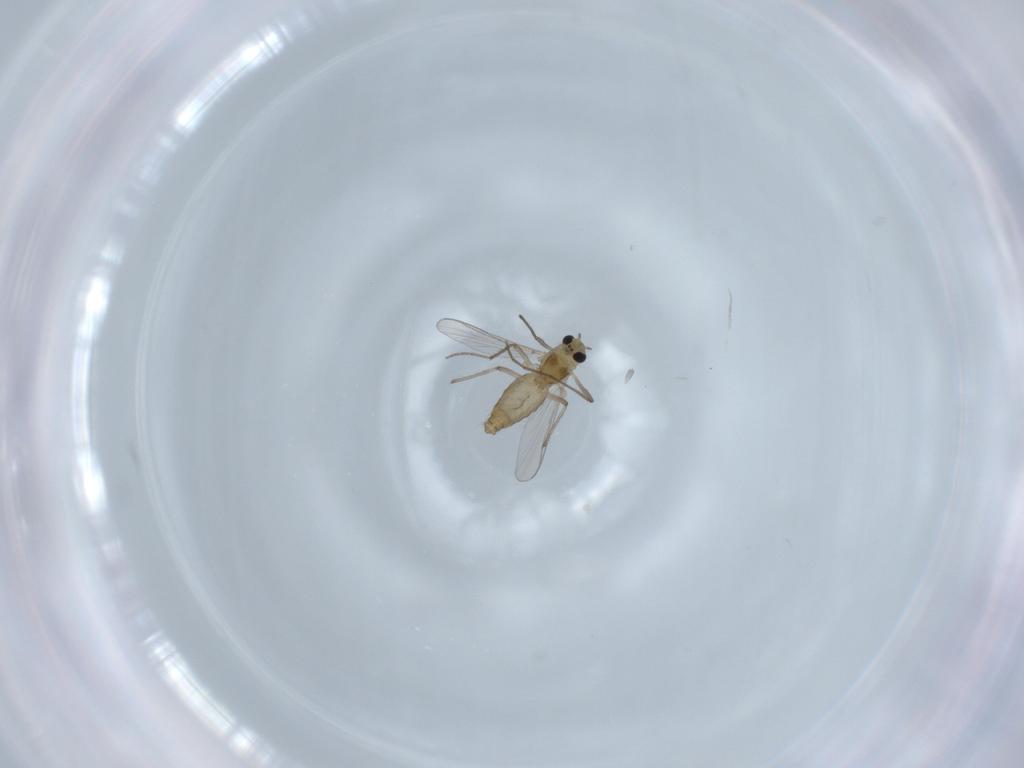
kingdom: Animalia
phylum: Arthropoda
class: Insecta
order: Diptera
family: Chironomidae
